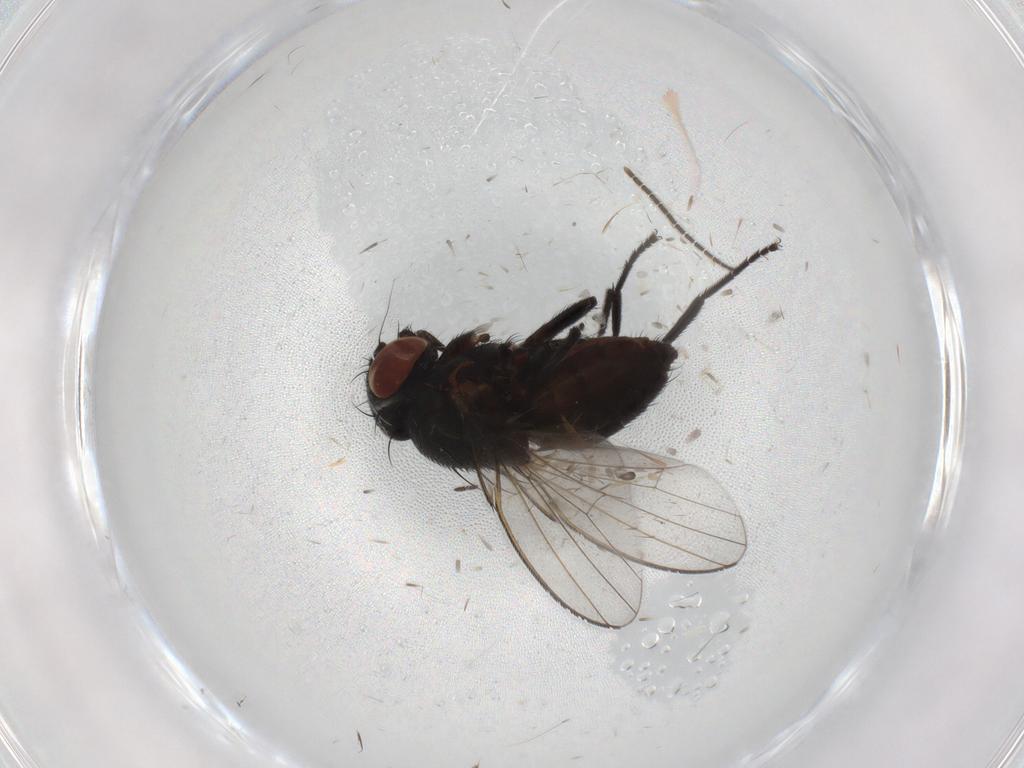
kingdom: Animalia
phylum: Arthropoda
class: Insecta
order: Diptera
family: Milichiidae
